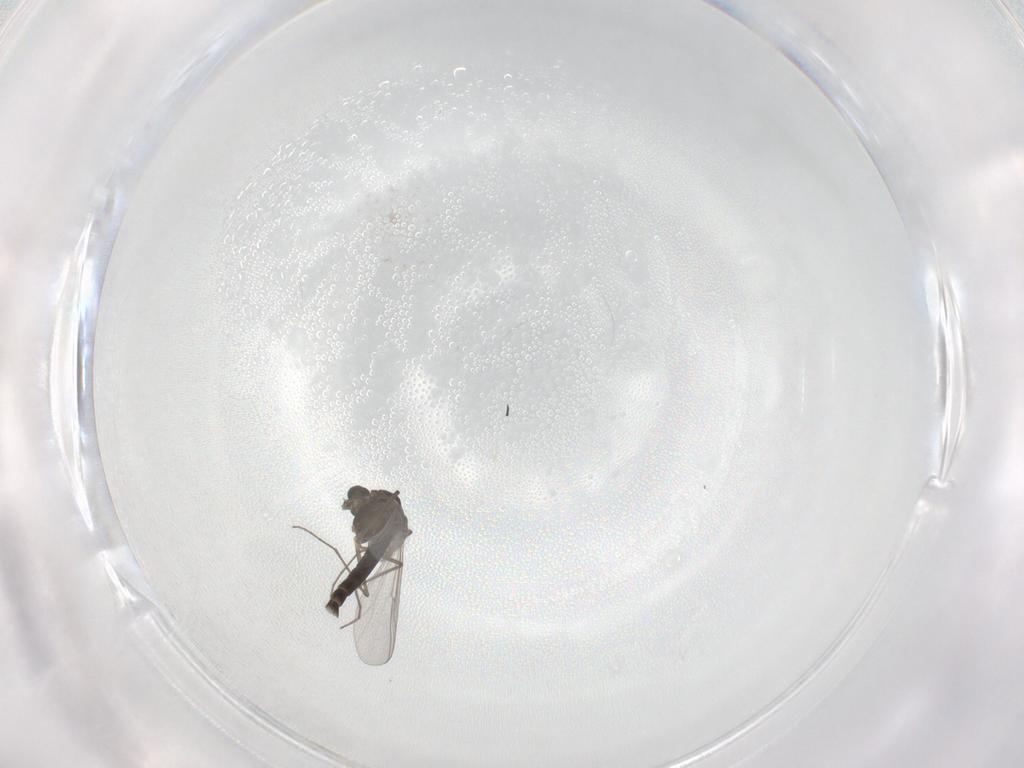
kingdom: Animalia
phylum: Arthropoda
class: Insecta
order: Diptera
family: Chironomidae
